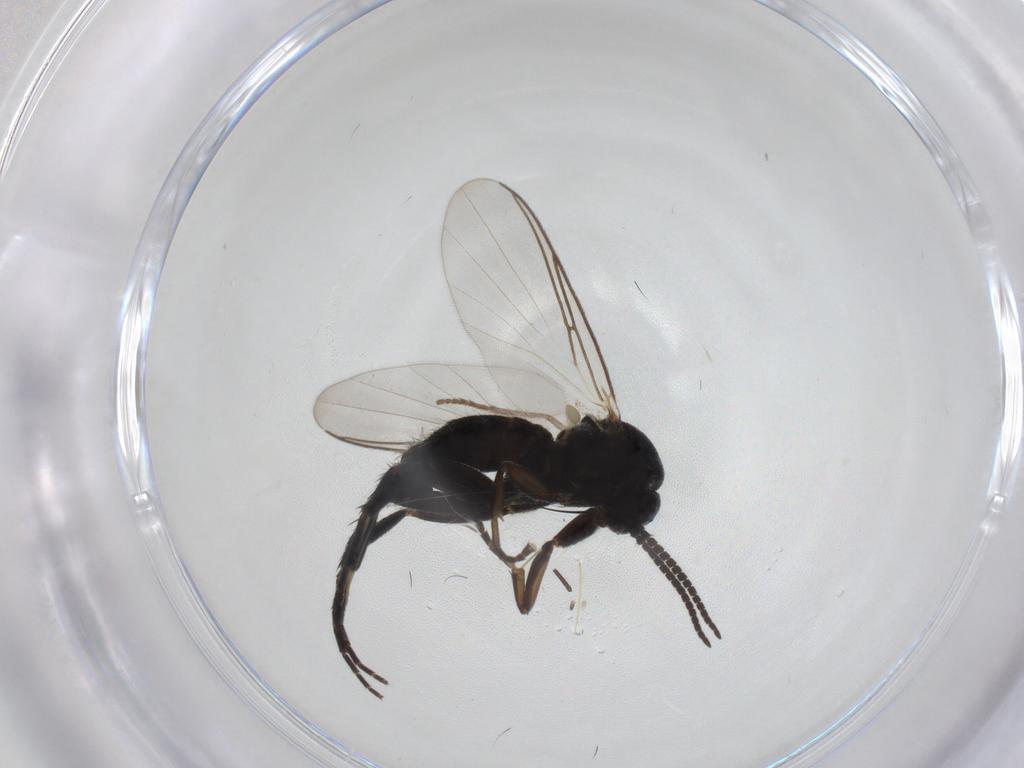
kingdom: Animalia
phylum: Arthropoda
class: Insecta
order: Diptera
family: Mycetophilidae
